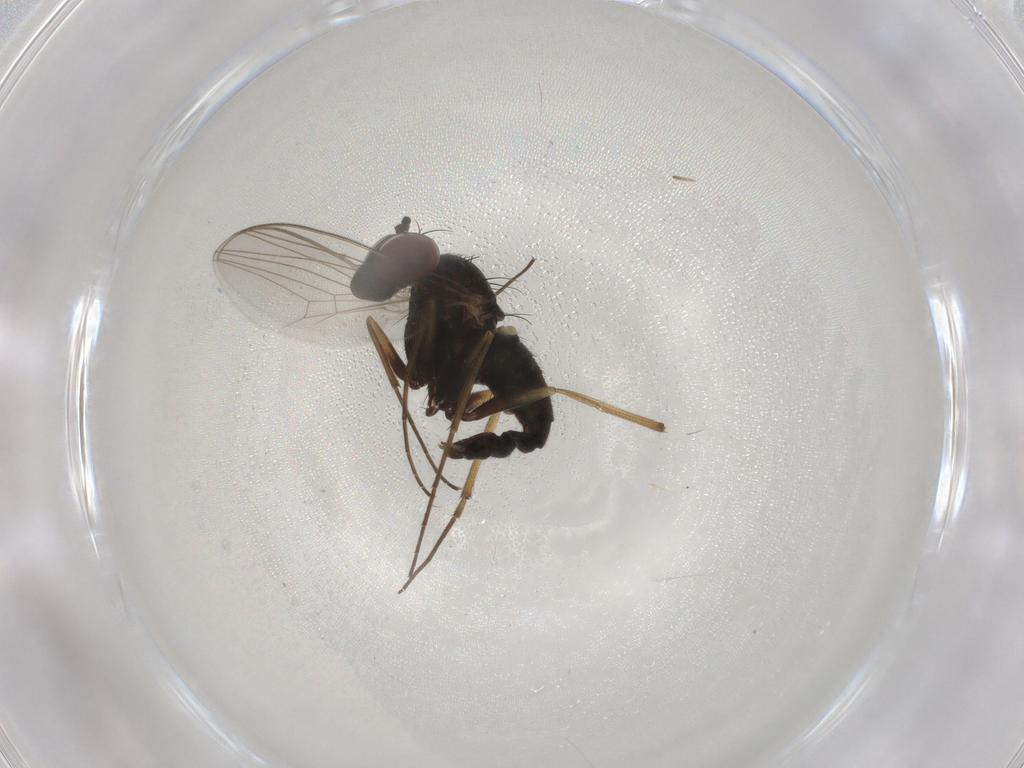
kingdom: Animalia
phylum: Arthropoda
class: Insecta
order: Diptera
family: Dolichopodidae
